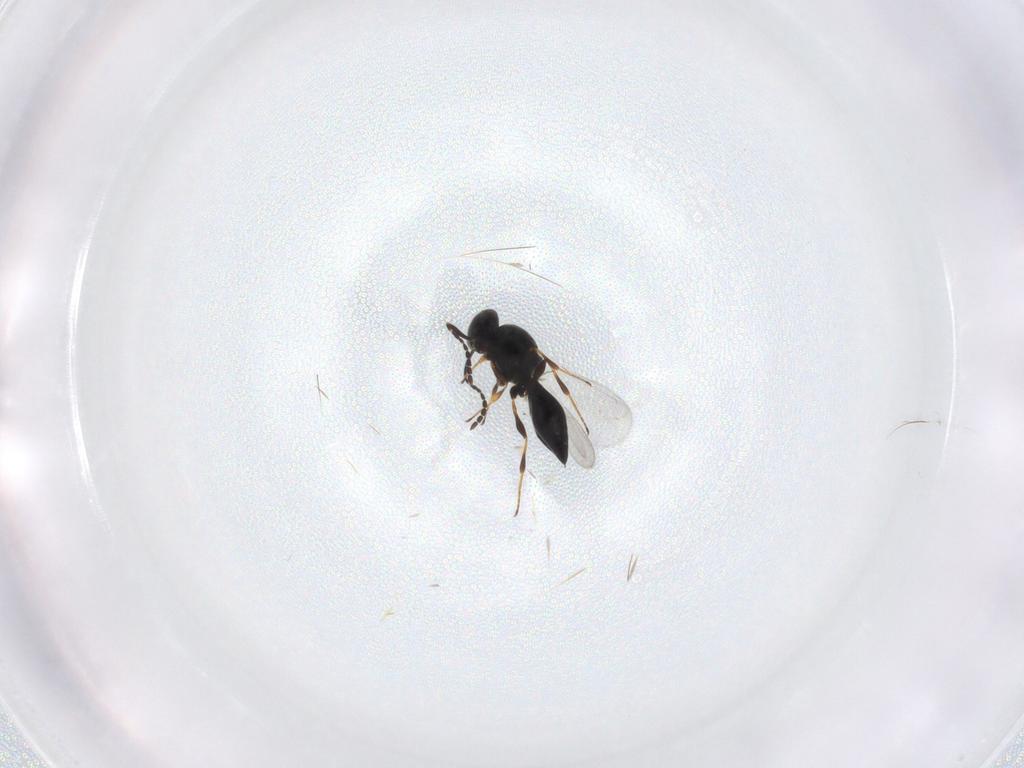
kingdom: Animalia
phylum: Arthropoda
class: Insecta
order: Hymenoptera
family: Platygastridae
